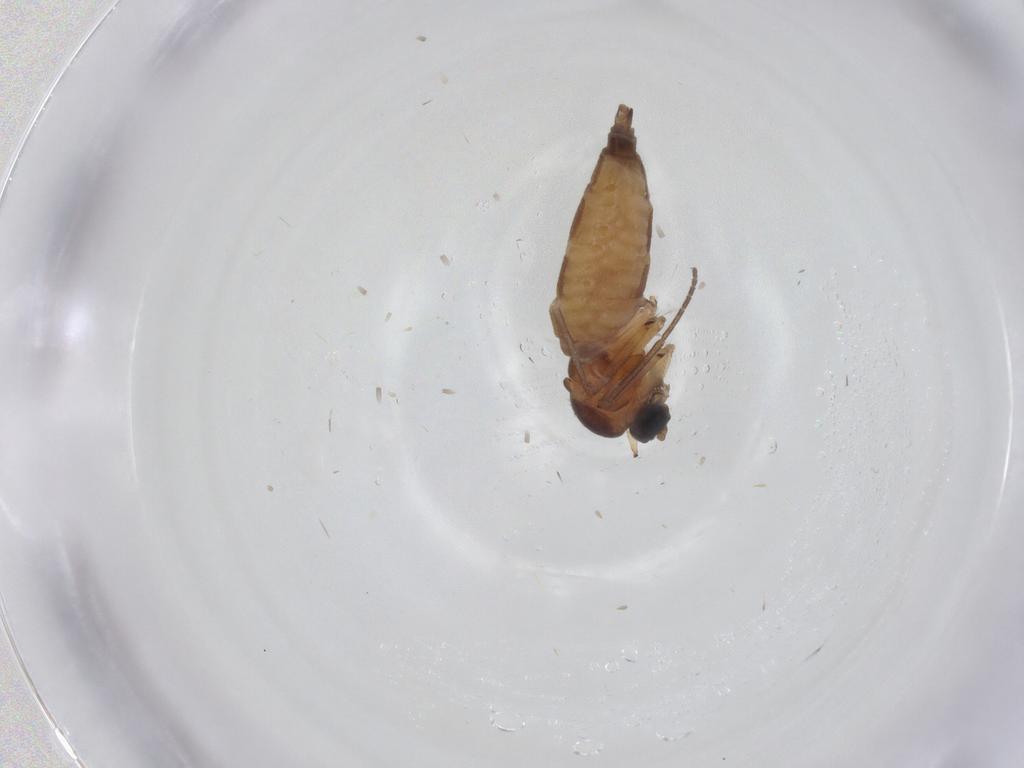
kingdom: Animalia
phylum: Arthropoda
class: Insecta
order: Diptera
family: Sciaridae
